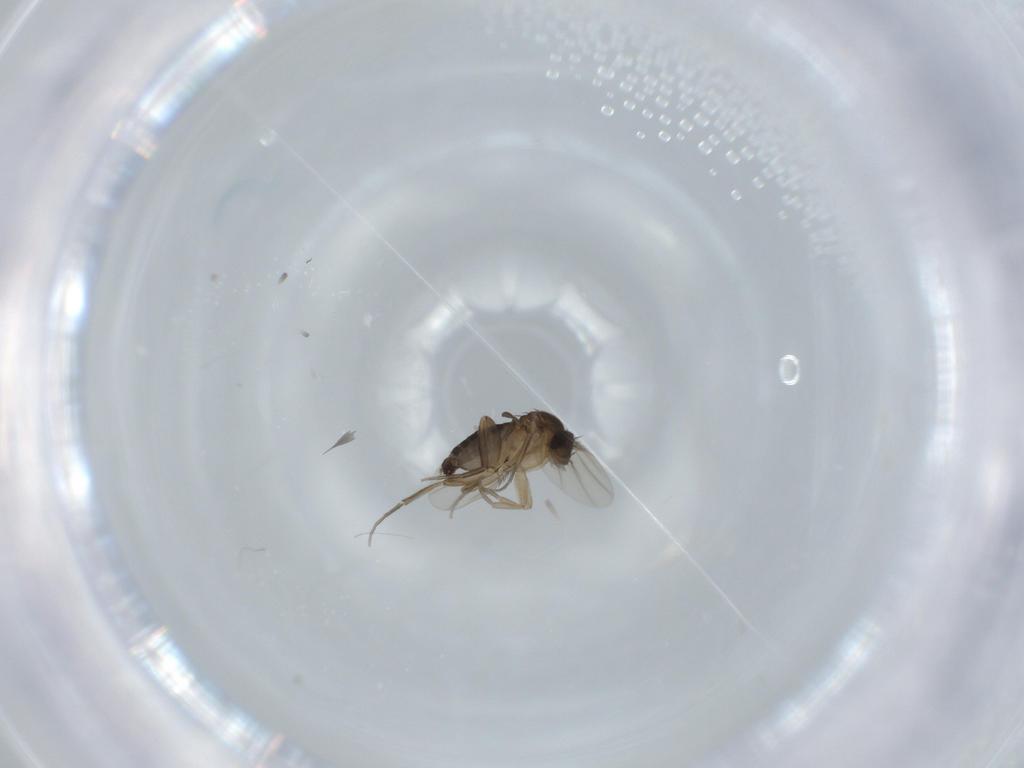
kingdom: Animalia
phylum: Arthropoda
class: Insecta
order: Diptera
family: Phoridae
